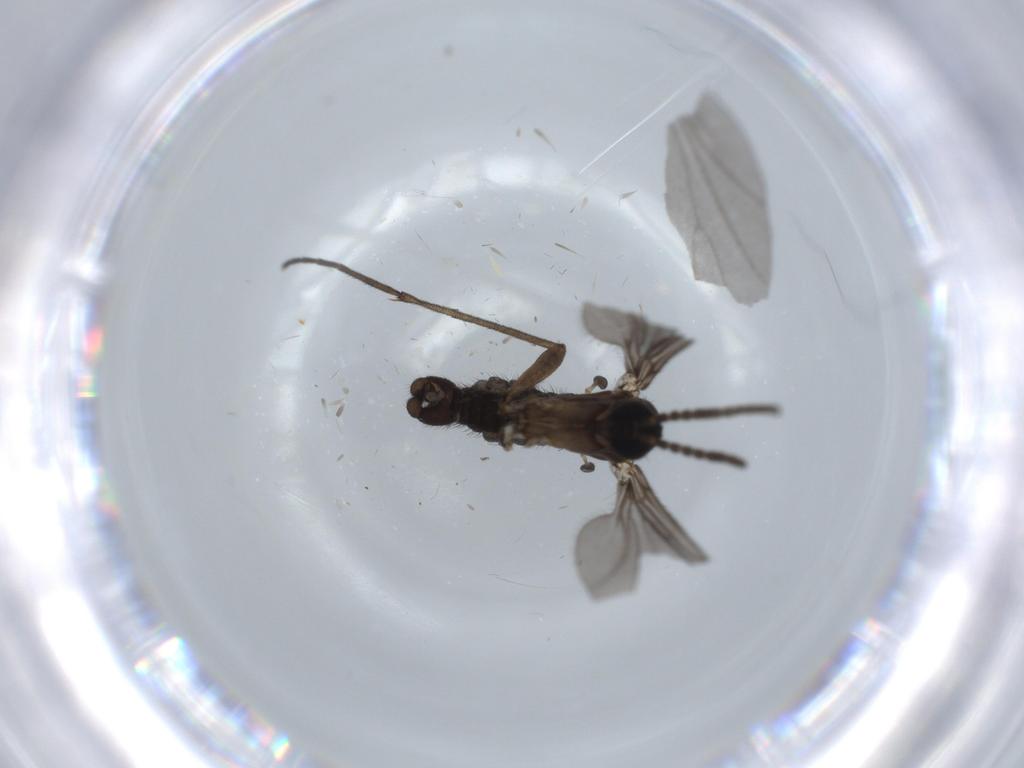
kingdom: Animalia
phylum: Arthropoda
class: Insecta
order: Diptera
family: Sciaridae
